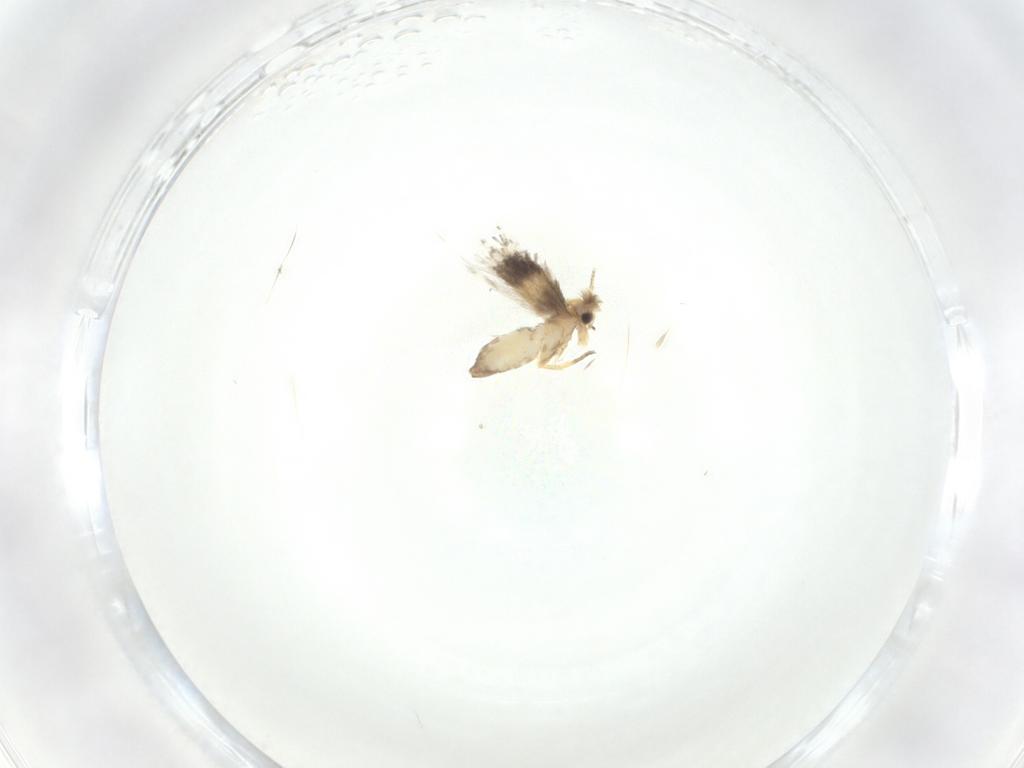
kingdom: Animalia
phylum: Arthropoda
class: Insecta
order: Lepidoptera
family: Nepticulidae
